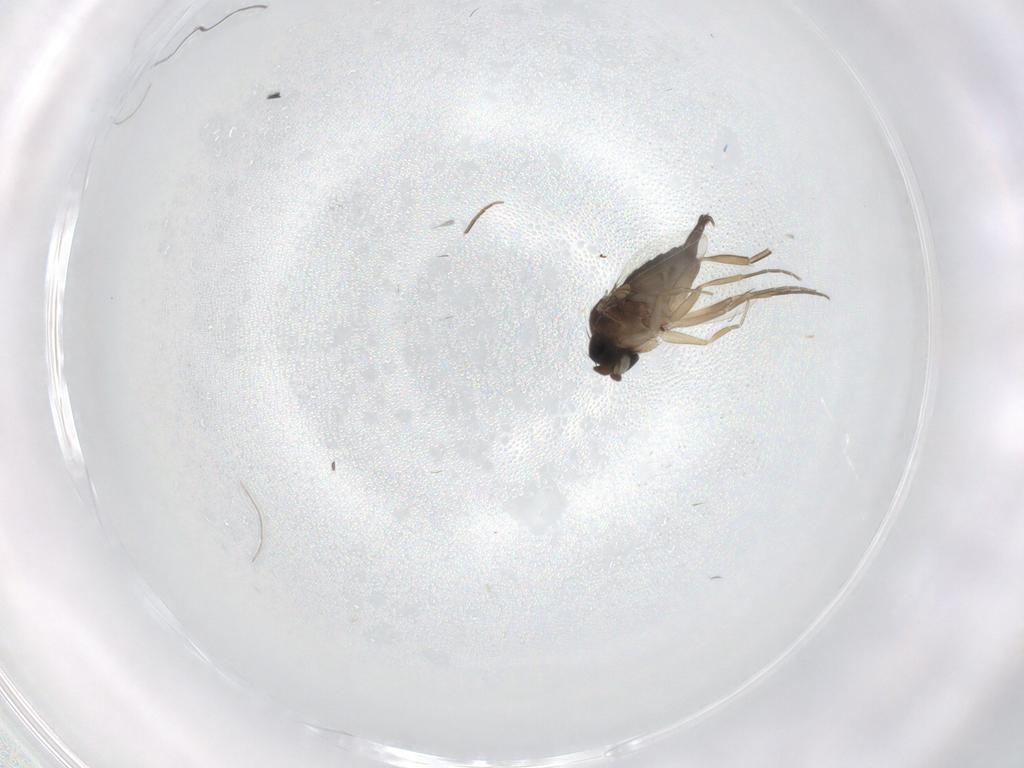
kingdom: Animalia
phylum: Arthropoda
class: Insecta
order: Diptera
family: Phoridae
